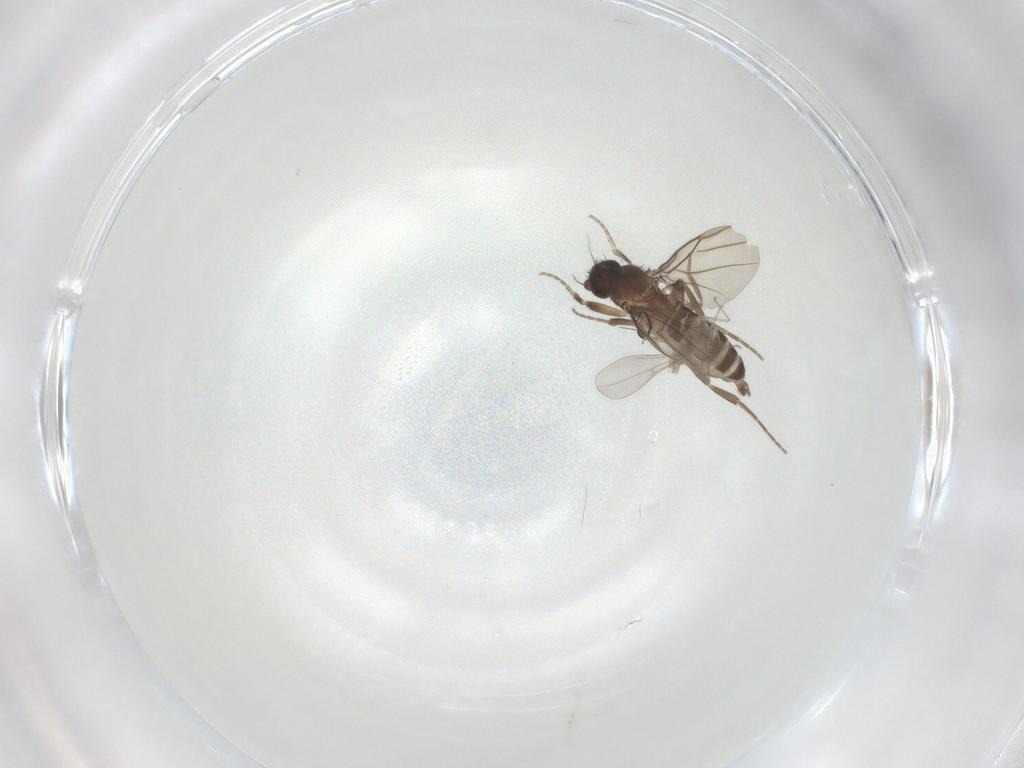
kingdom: Animalia
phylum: Arthropoda
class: Insecta
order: Diptera
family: Phoridae
